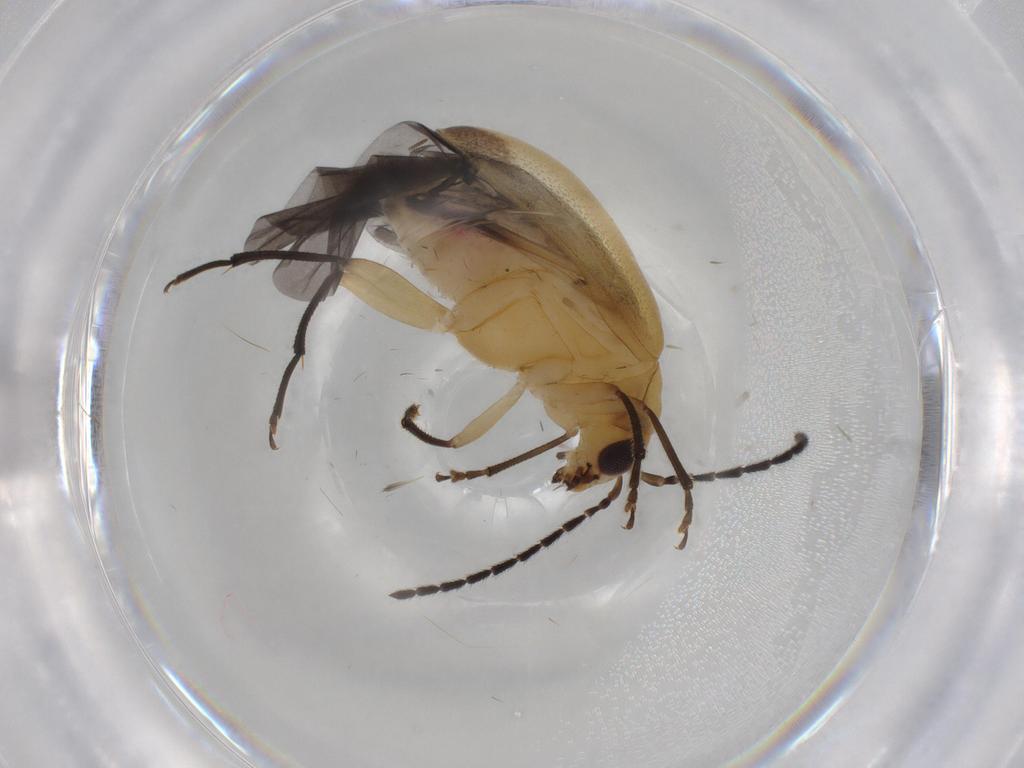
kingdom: Animalia
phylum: Arthropoda
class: Insecta
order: Coleoptera
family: Chrysomelidae
